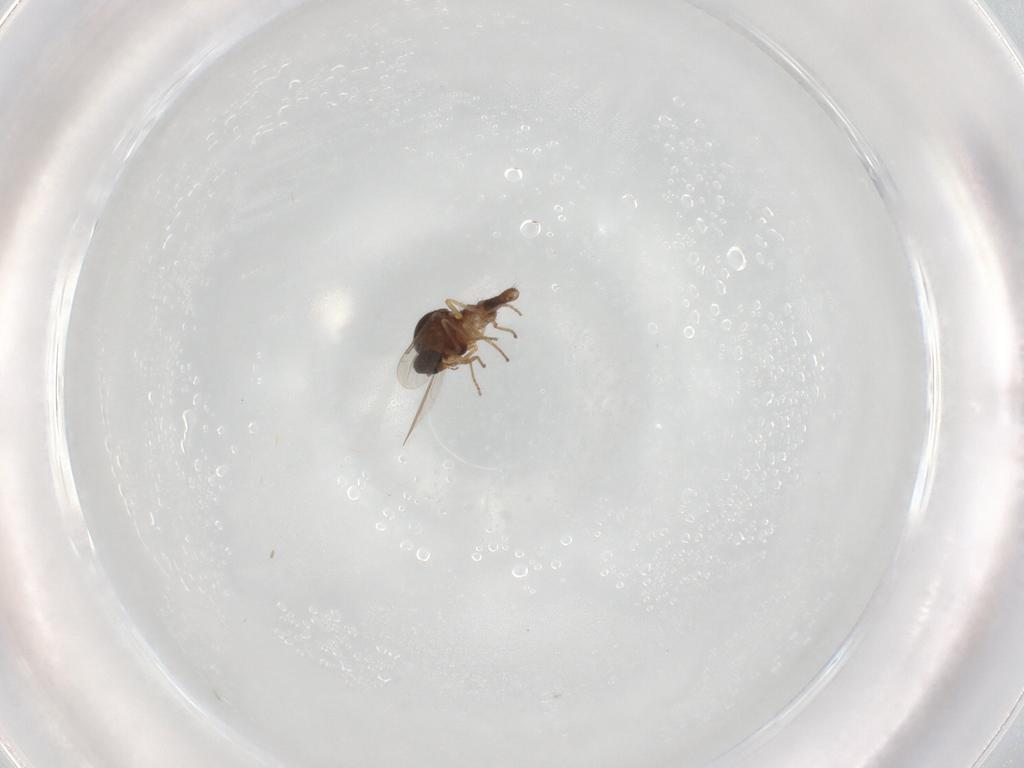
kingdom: Animalia
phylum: Arthropoda
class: Insecta
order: Diptera
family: Ceratopogonidae
